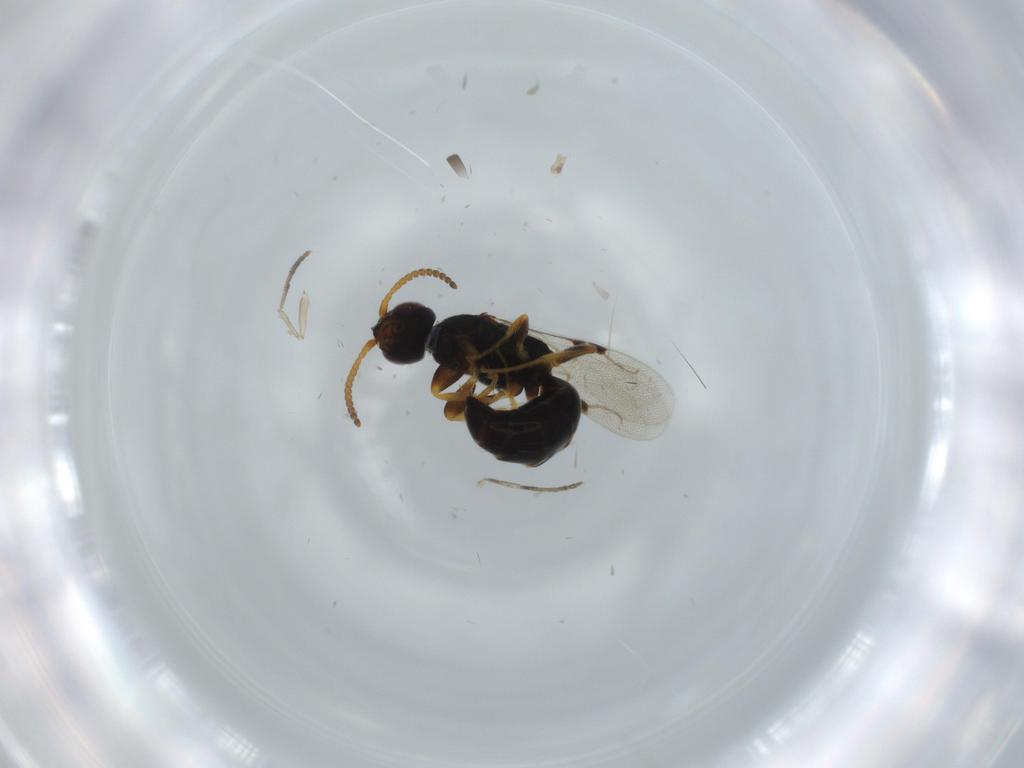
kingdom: Animalia
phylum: Arthropoda
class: Insecta
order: Hymenoptera
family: Bethylidae
